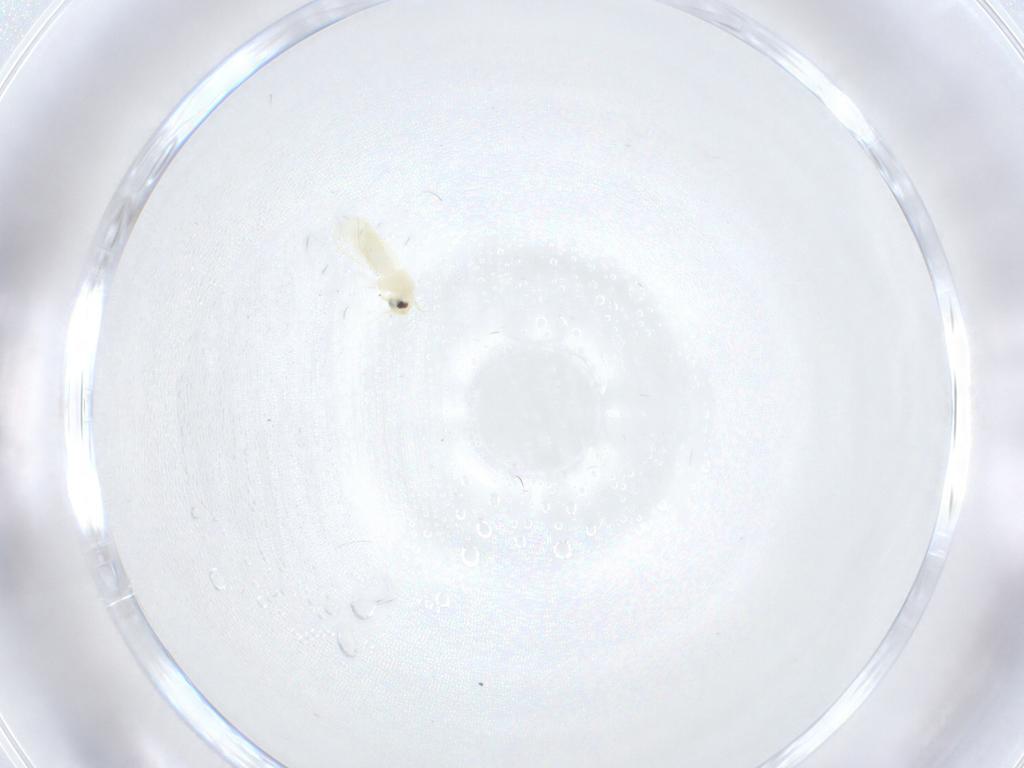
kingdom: Animalia
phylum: Arthropoda
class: Insecta
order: Hemiptera
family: Aleyrodidae
